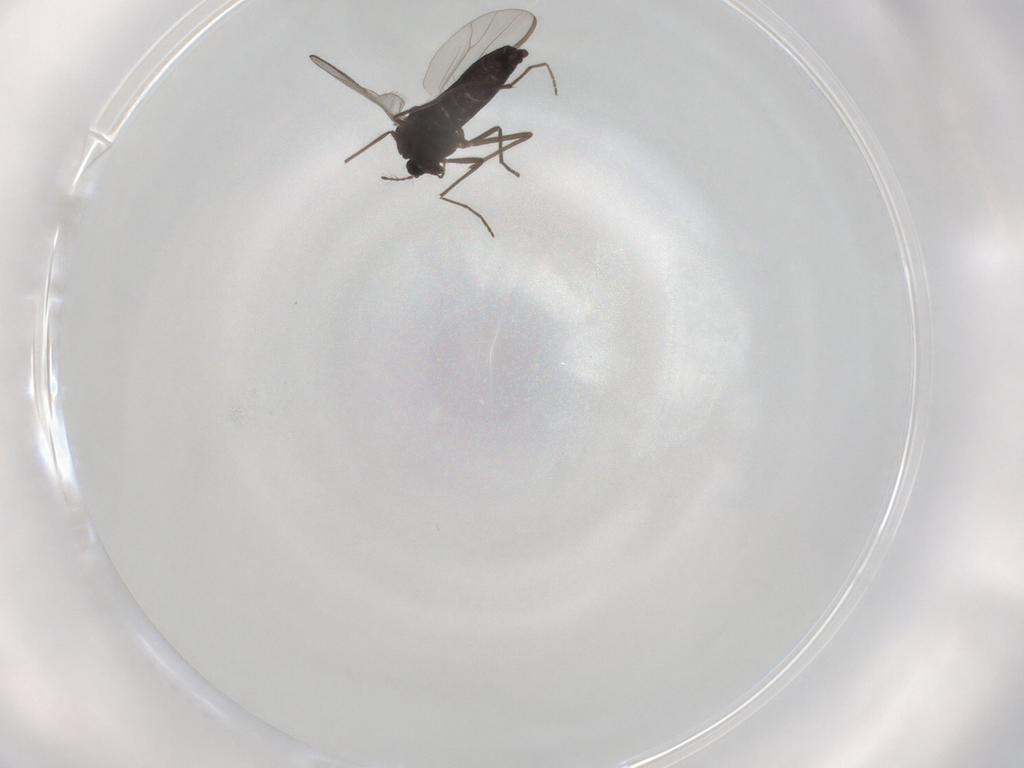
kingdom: Animalia
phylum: Arthropoda
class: Insecta
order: Diptera
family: Chironomidae
